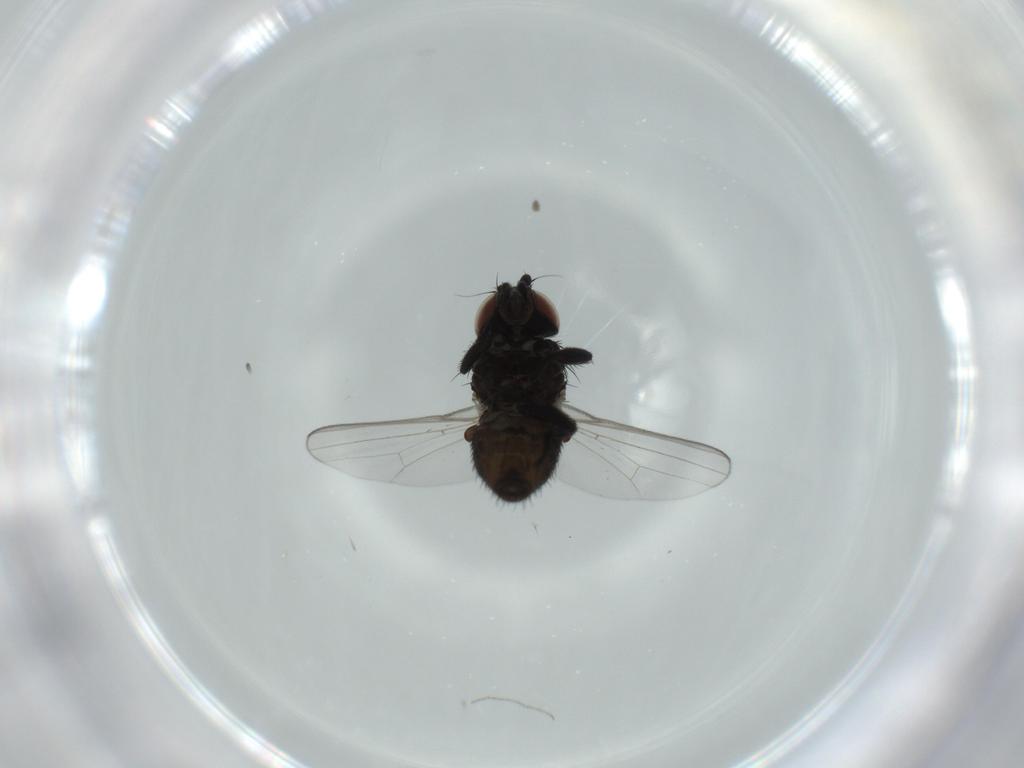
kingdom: Animalia
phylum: Arthropoda
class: Insecta
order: Diptera
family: Milichiidae
